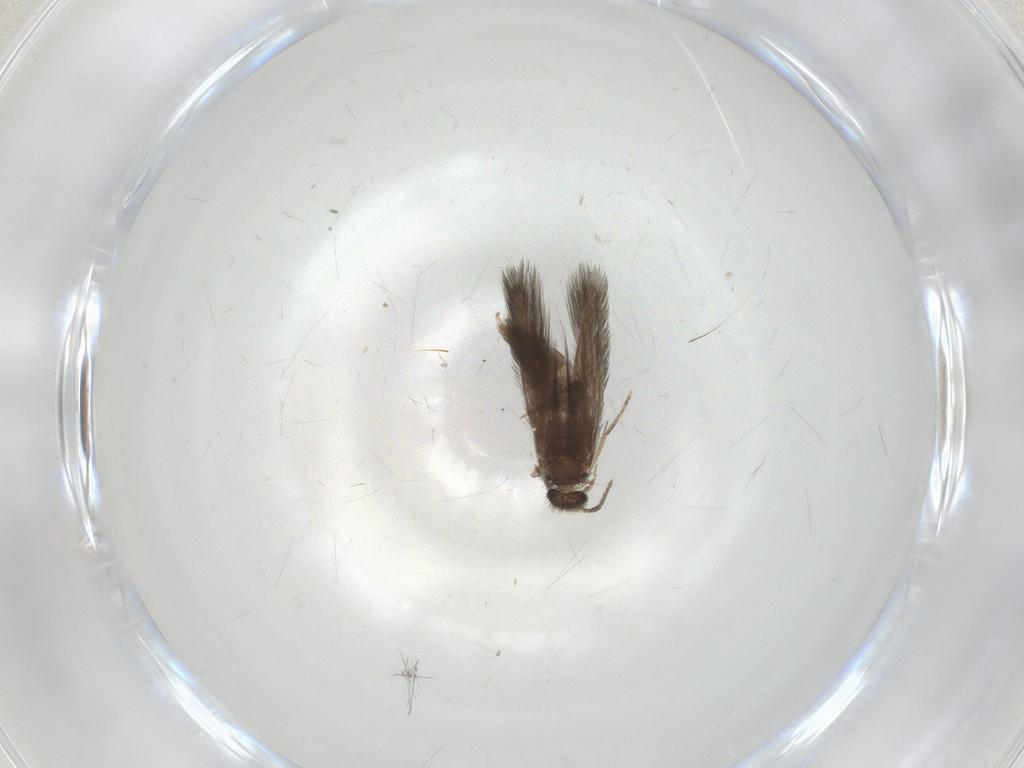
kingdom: Animalia
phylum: Arthropoda
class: Insecta
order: Trichoptera
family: Hydroptilidae
